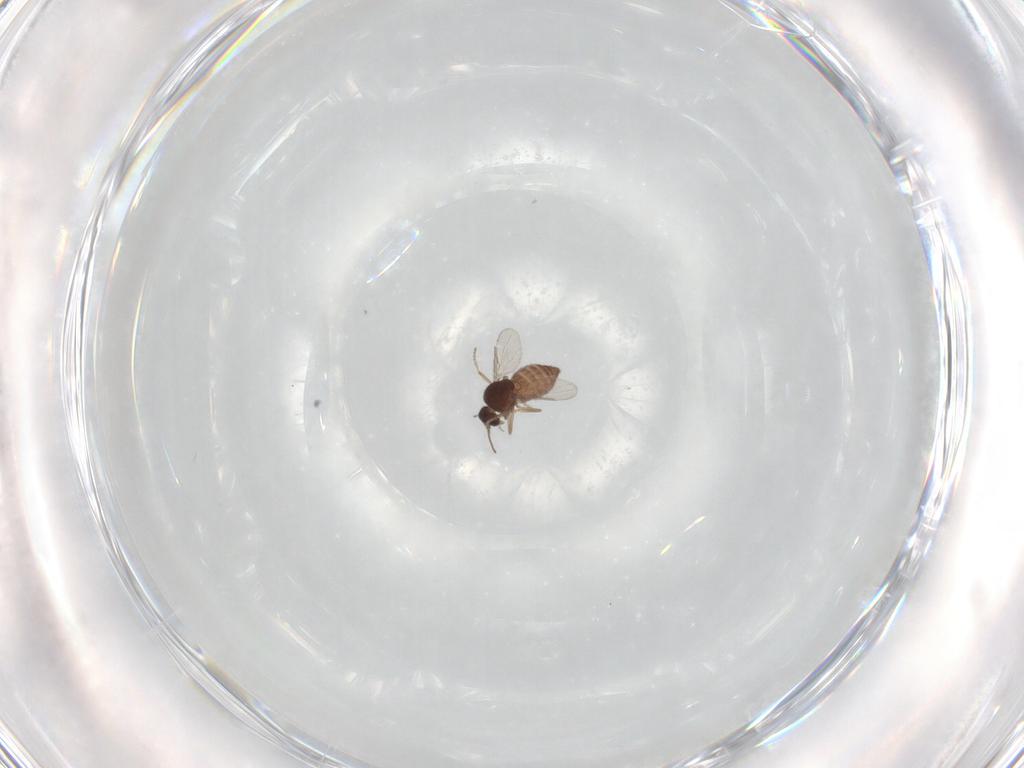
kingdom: Animalia
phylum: Arthropoda
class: Insecta
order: Diptera
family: Ceratopogonidae
